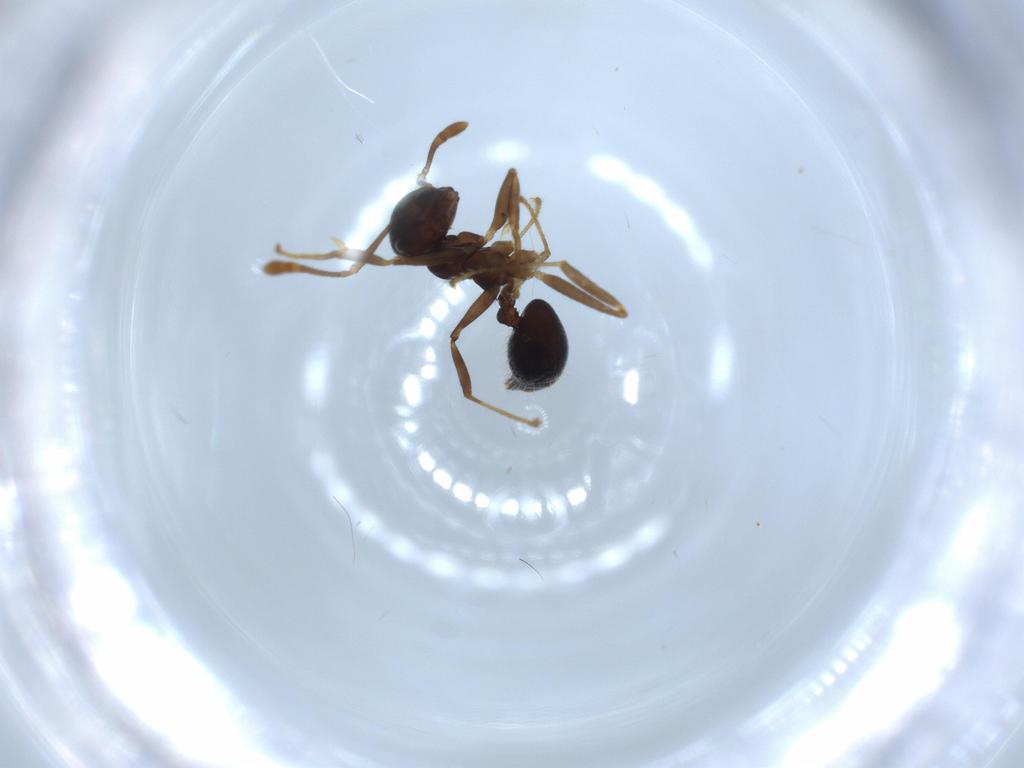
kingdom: Animalia
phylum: Arthropoda
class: Insecta
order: Hymenoptera
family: Formicidae
